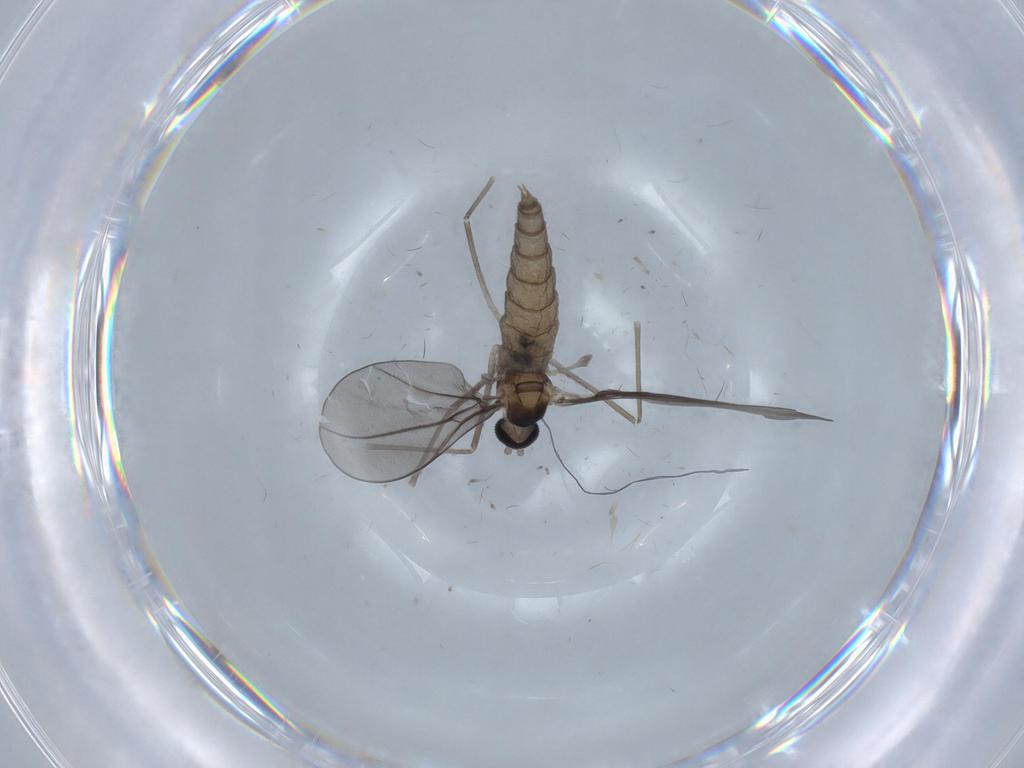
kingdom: Animalia
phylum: Arthropoda
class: Insecta
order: Diptera
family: Cecidomyiidae
